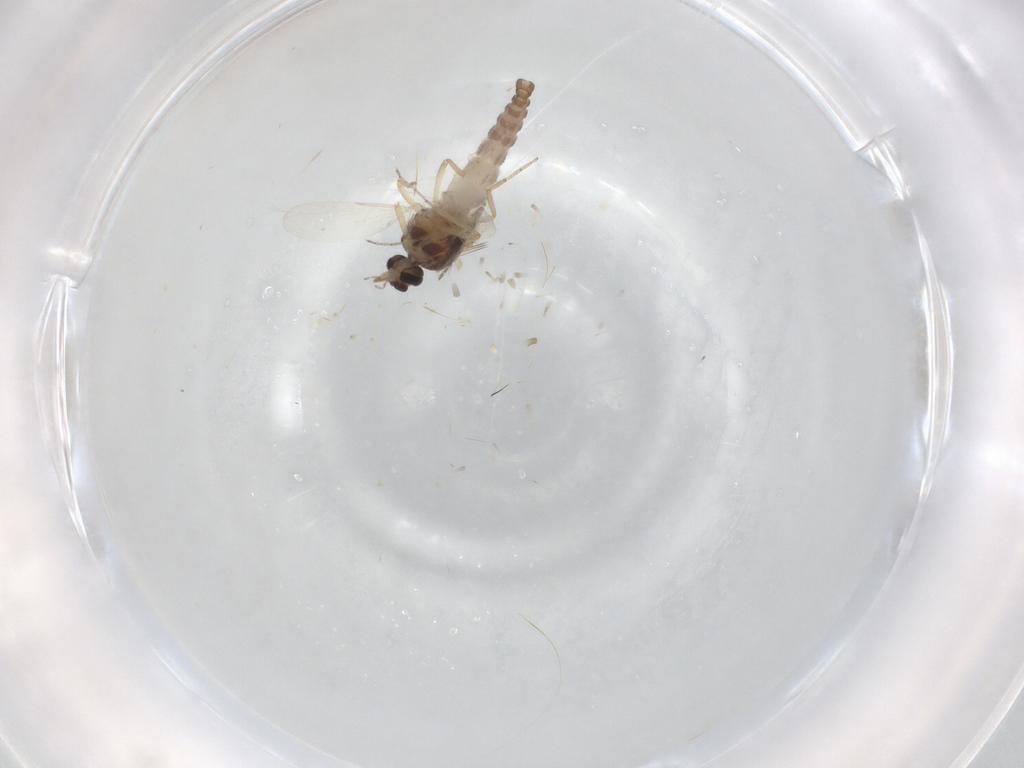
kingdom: Animalia
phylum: Arthropoda
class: Insecta
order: Diptera
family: Ceratopogonidae
